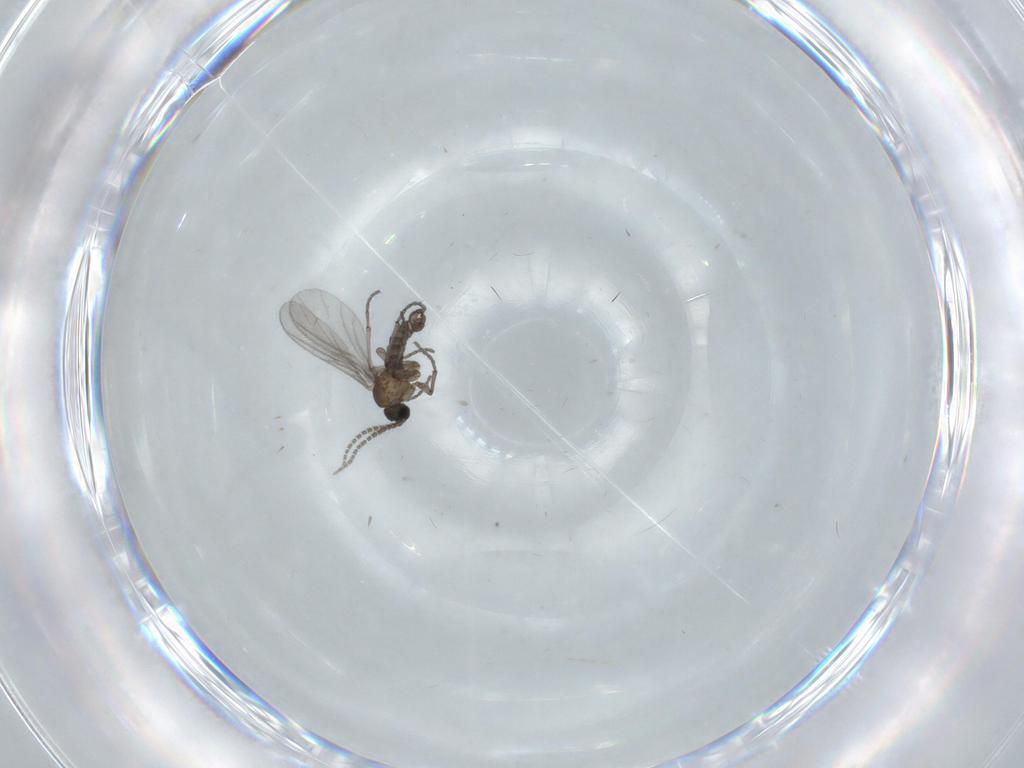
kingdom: Animalia
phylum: Arthropoda
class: Insecta
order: Diptera
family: Sciaridae
